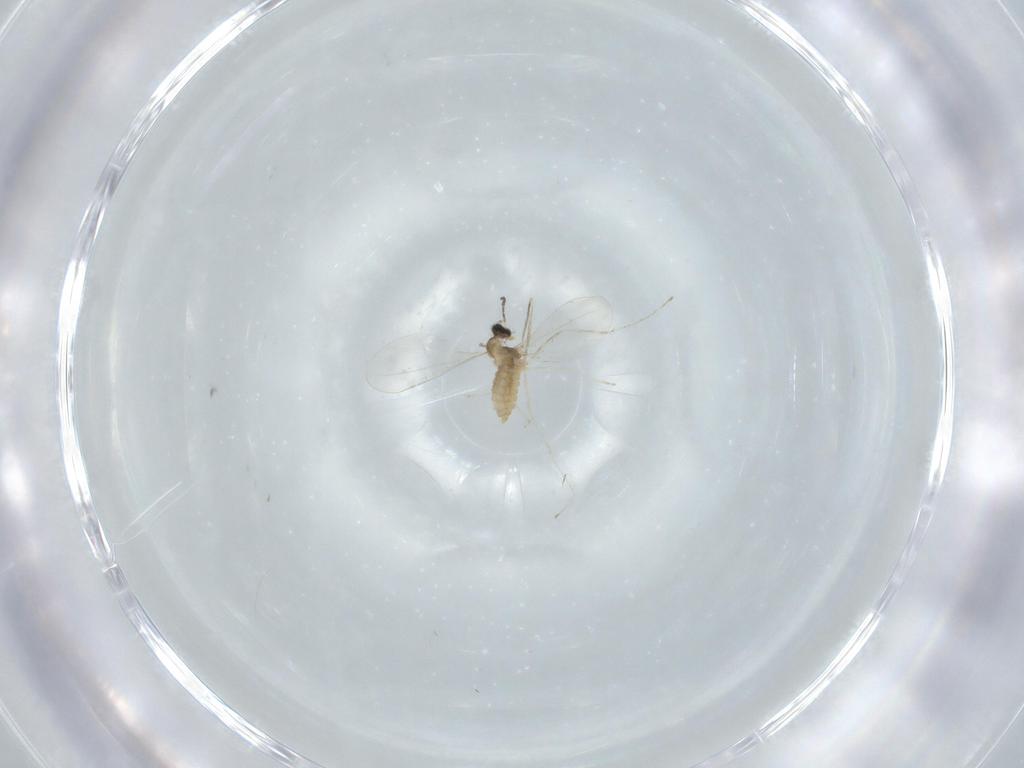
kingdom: Animalia
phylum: Arthropoda
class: Insecta
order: Diptera
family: Cecidomyiidae
